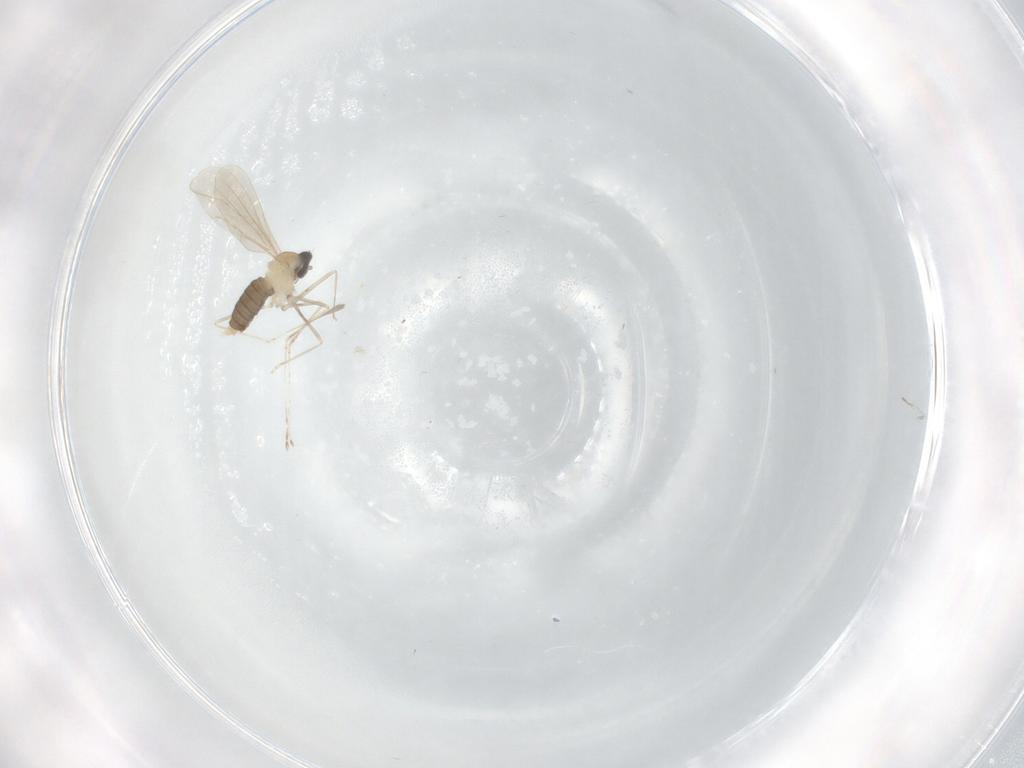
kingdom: Animalia
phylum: Arthropoda
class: Insecta
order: Diptera
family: Cecidomyiidae
